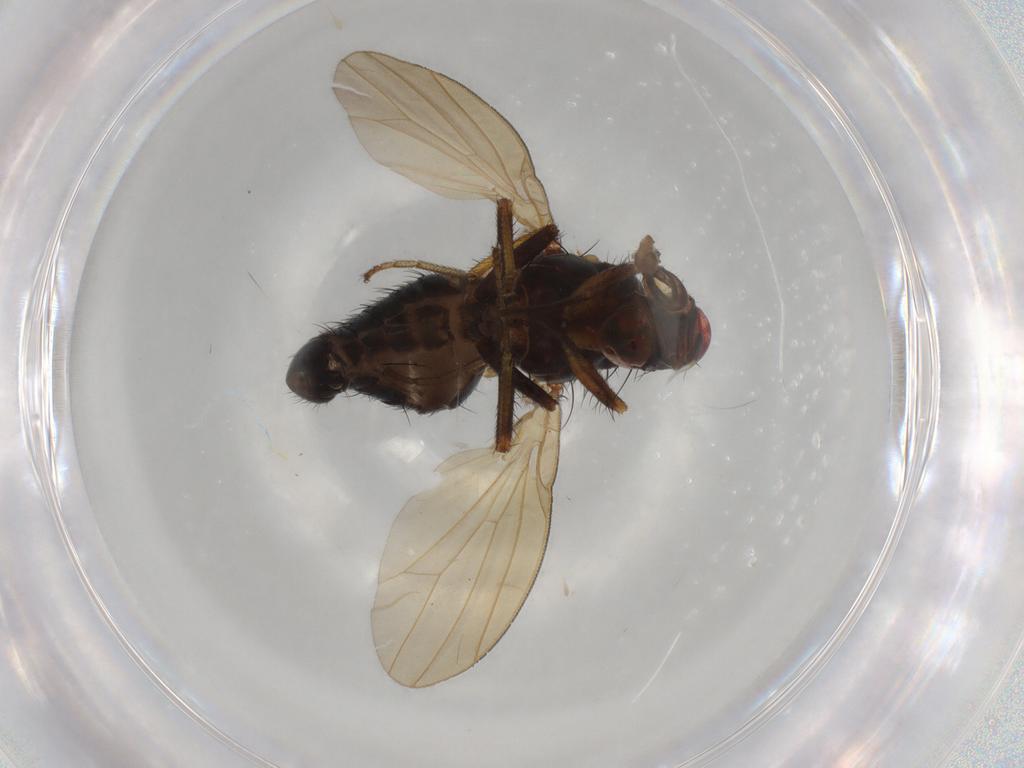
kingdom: Animalia
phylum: Arthropoda
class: Insecta
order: Diptera
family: Lauxaniidae
